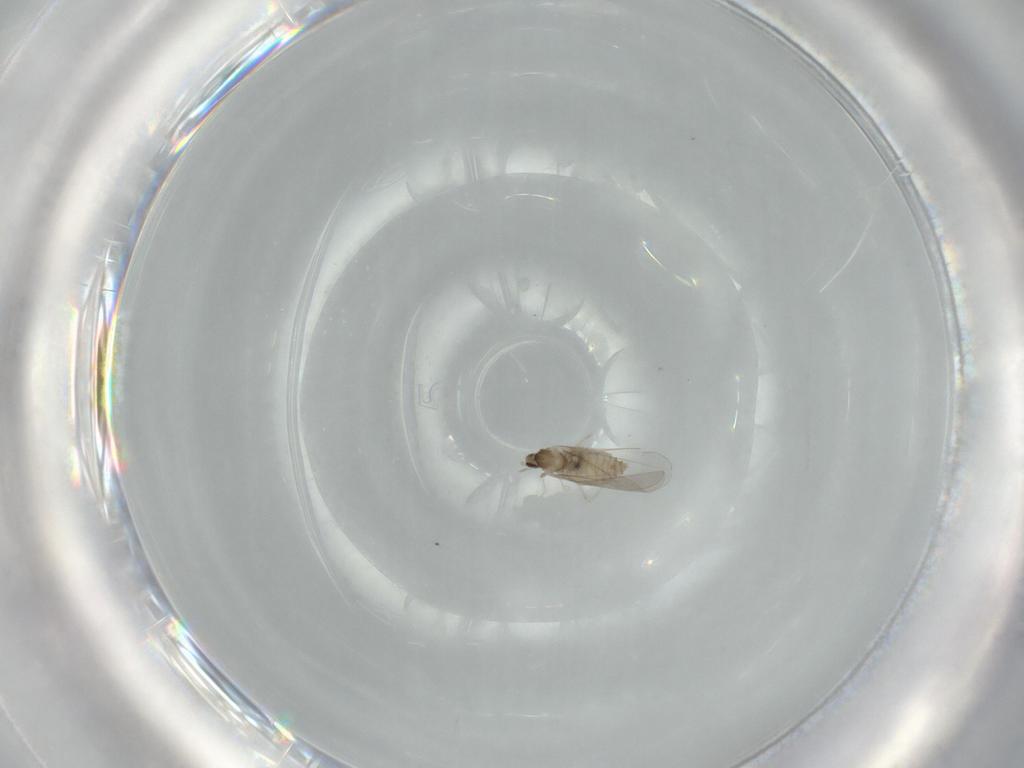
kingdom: Animalia
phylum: Arthropoda
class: Insecta
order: Diptera
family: Cecidomyiidae
